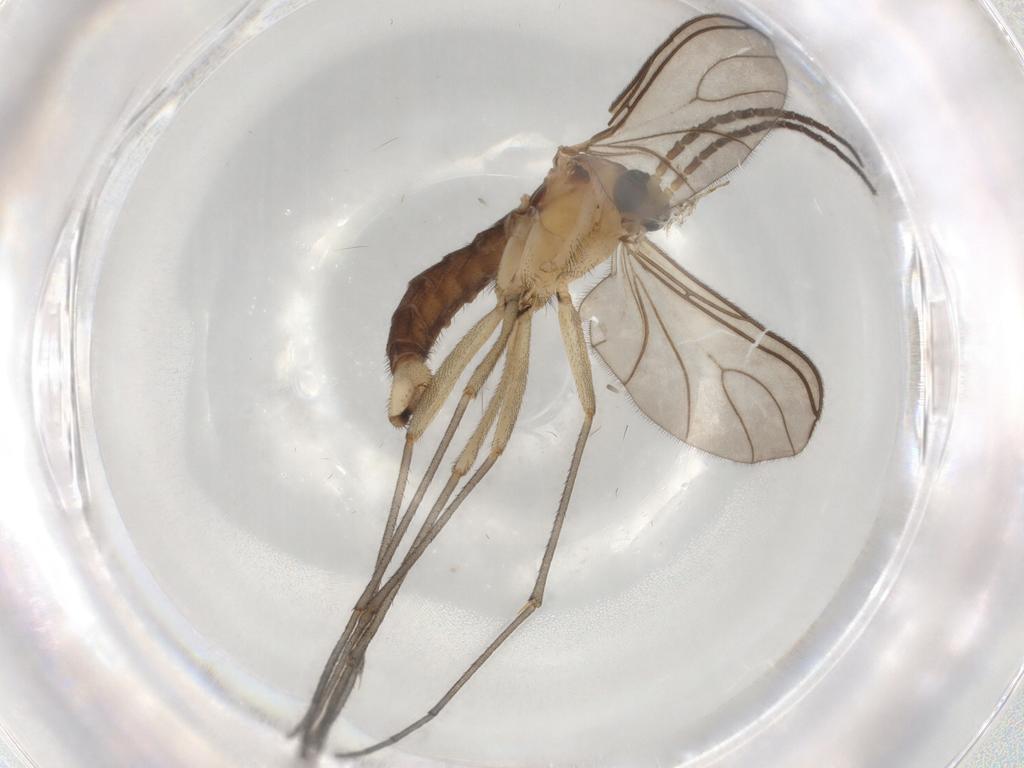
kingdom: Animalia
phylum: Arthropoda
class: Insecta
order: Diptera
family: Sciaridae
